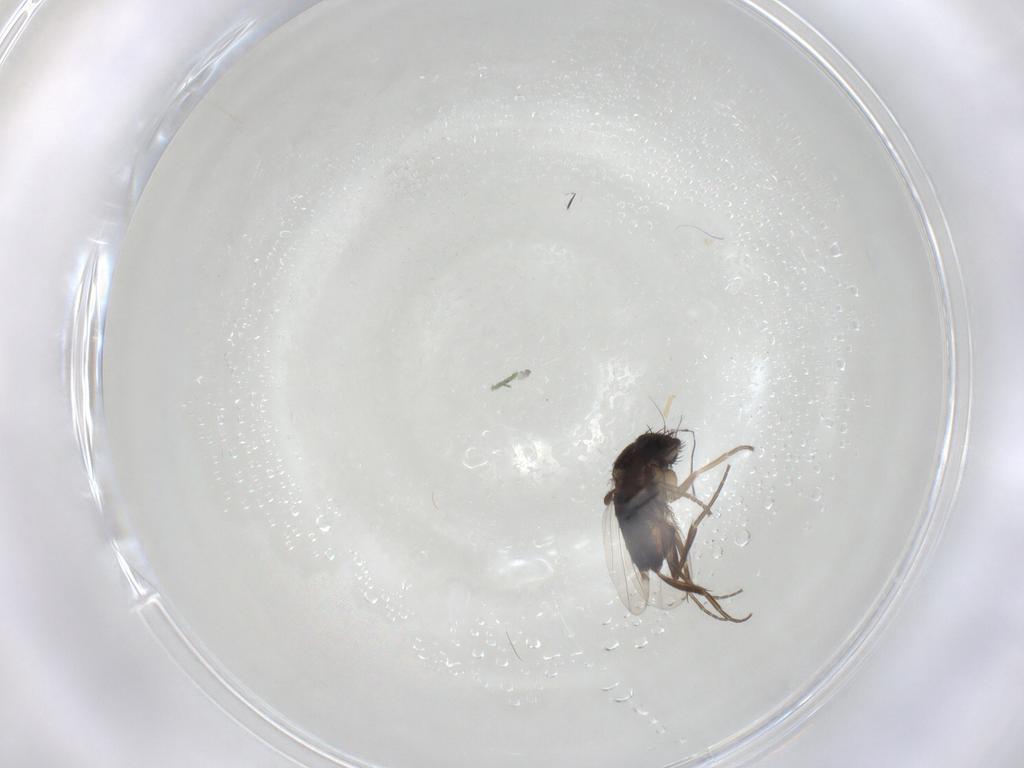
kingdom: Animalia
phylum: Arthropoda
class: Insecta
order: Diptera
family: Phoridae
